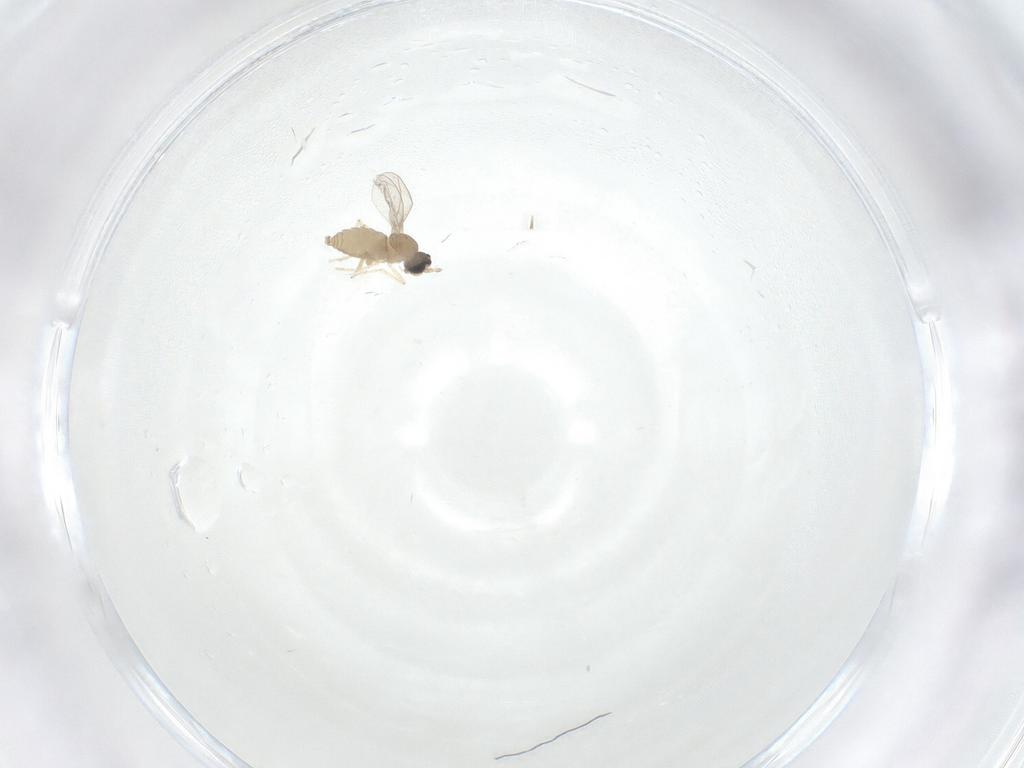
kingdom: Animalia
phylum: Arthropoda
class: Insecta
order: Diptera
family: Cecidomyiidae
